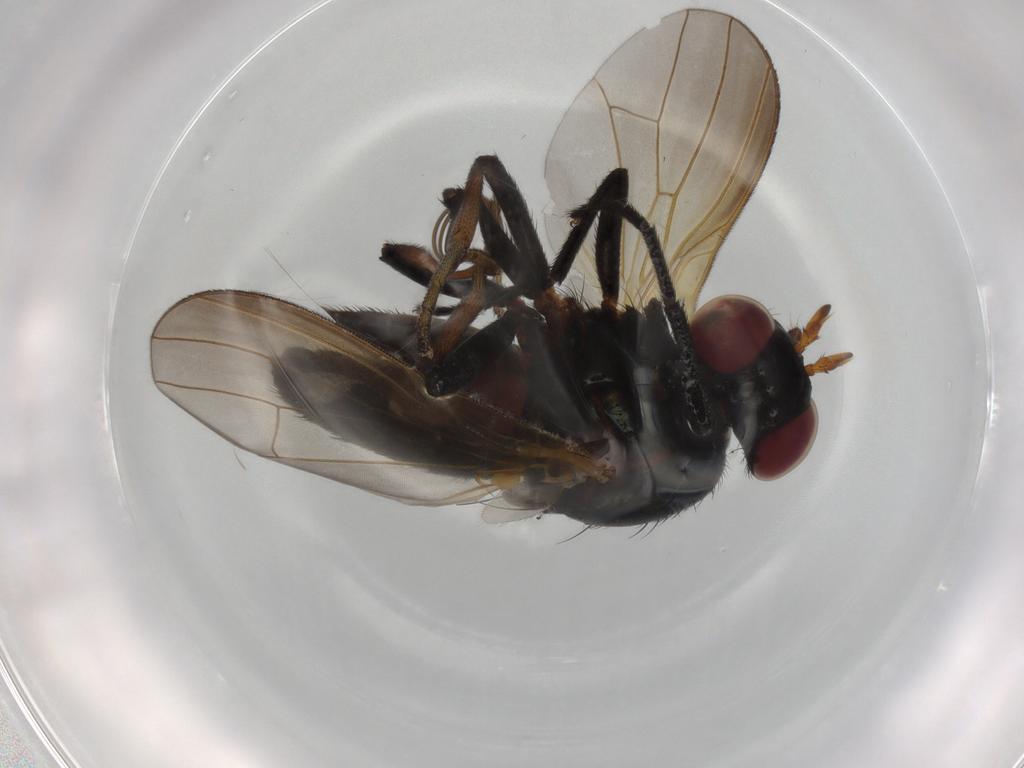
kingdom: Animalia
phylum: Arthropoda
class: Insecta
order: Diptera
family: Lauxaniidae
